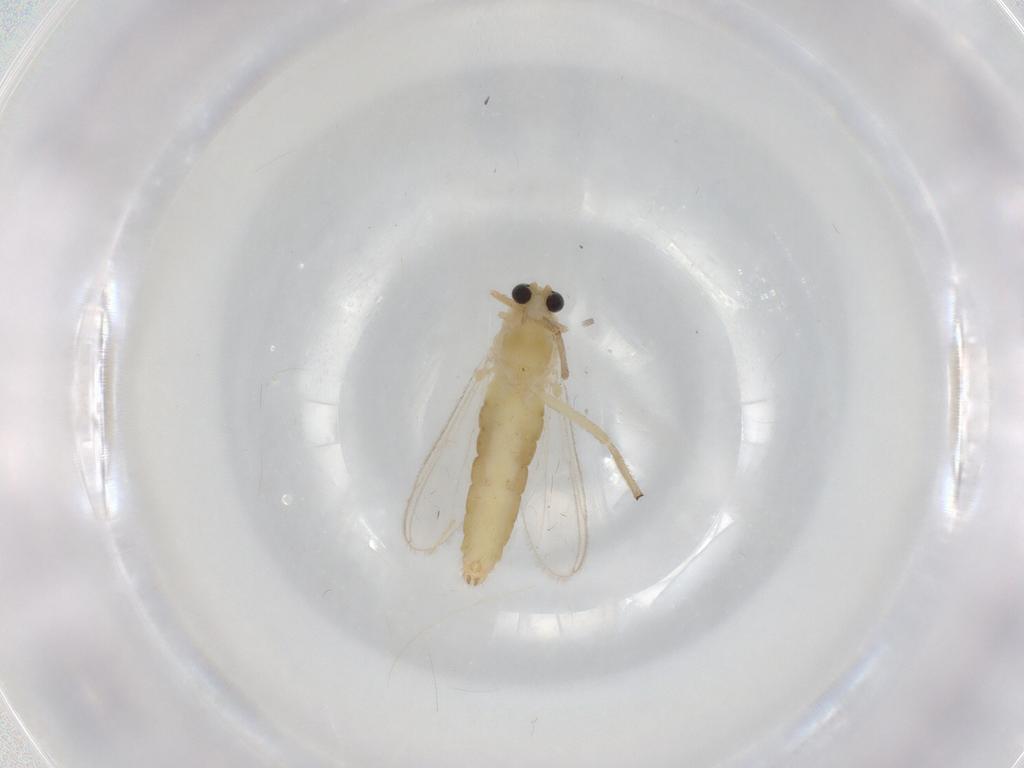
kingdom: Animalia
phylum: Arthropoda
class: Insecta
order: Diptera
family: Chironomidae
